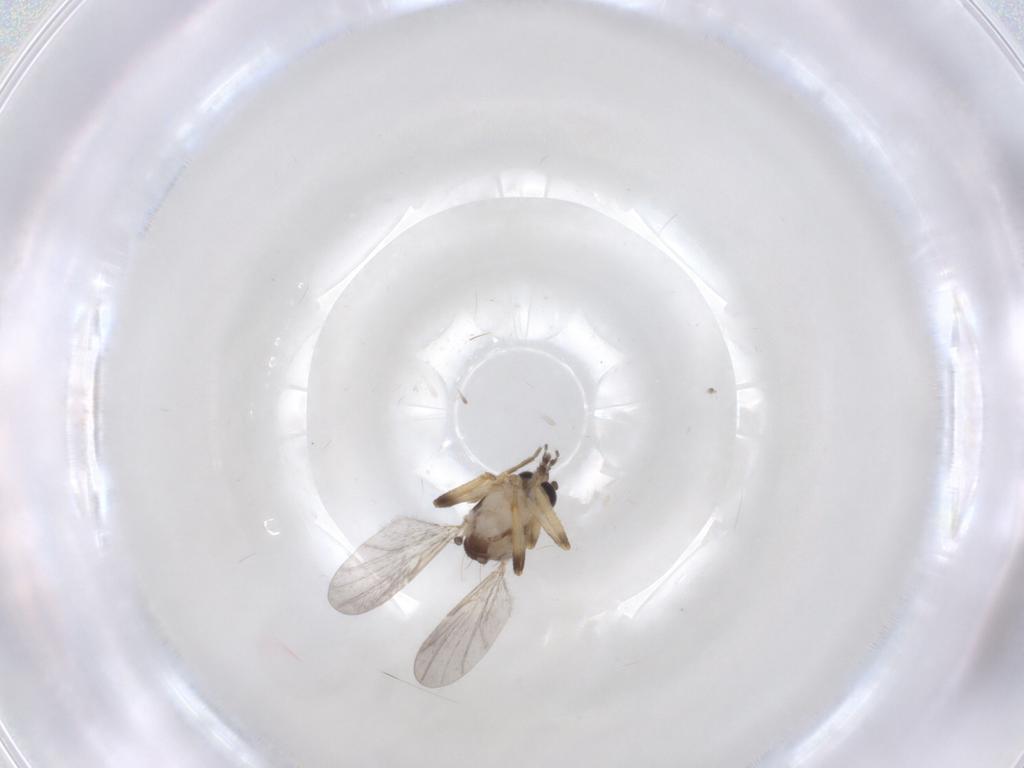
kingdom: Animalia
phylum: Arthropoda
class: Insecta
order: Diptera
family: Ceratopogonidae
